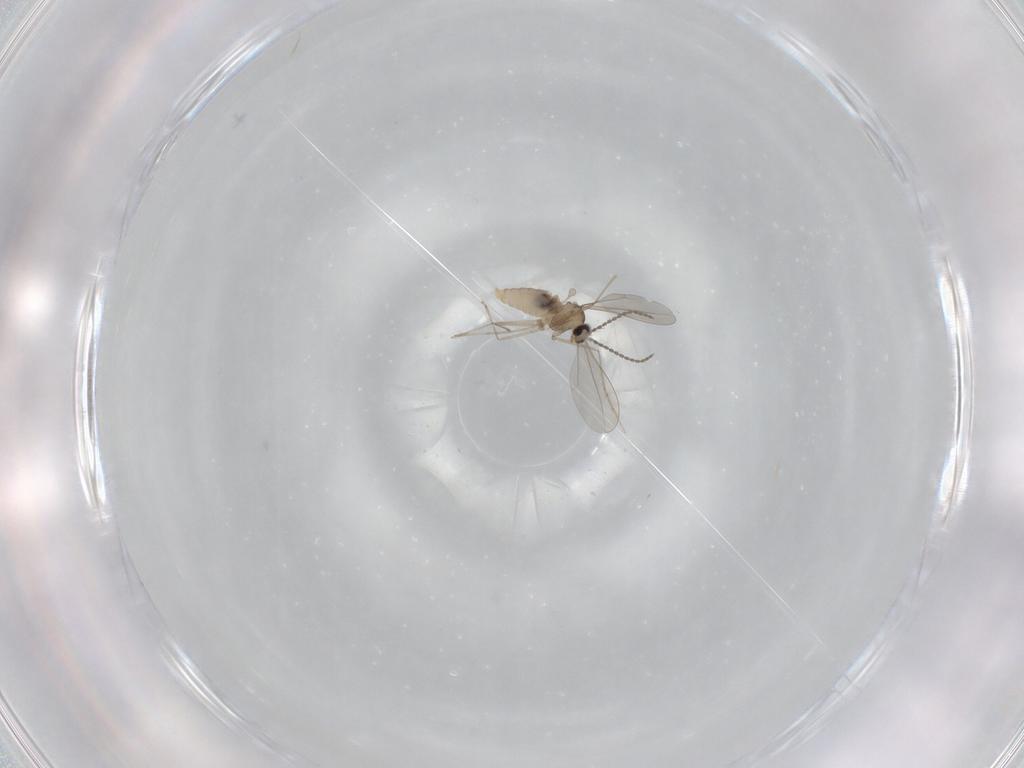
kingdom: Animalia
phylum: Arthropoda
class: Insecta
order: Diptera
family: Cecidomyiidae
